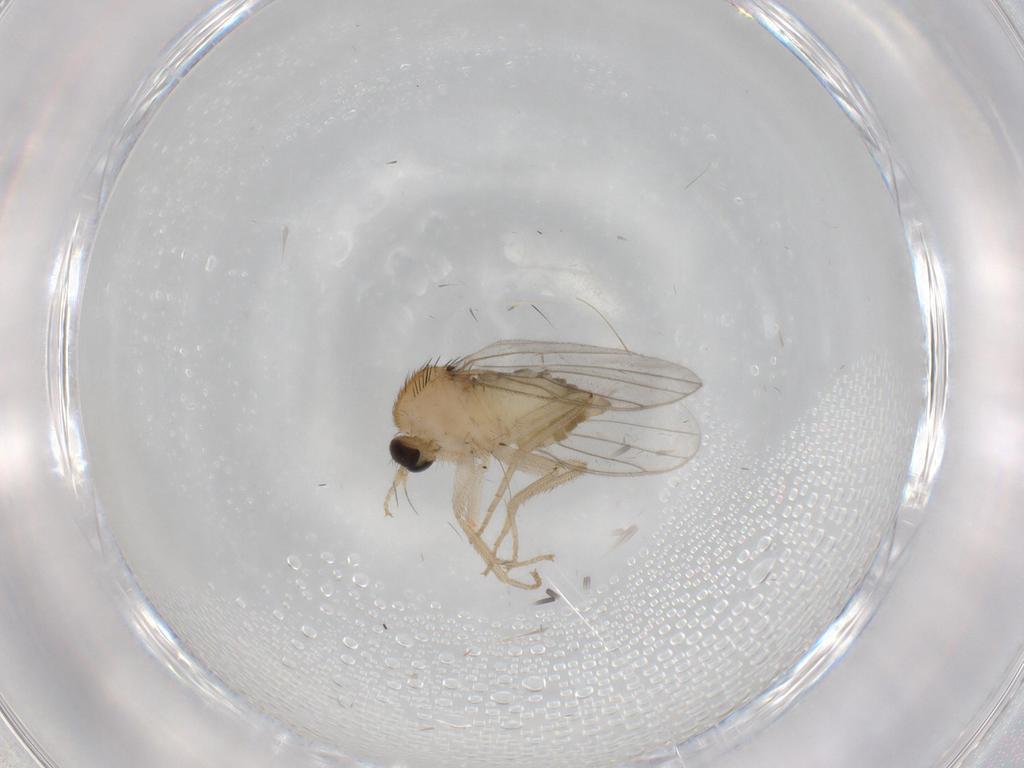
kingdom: Animalia
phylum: Arthropoda
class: Insecta
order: Diptera
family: Hybotidae
